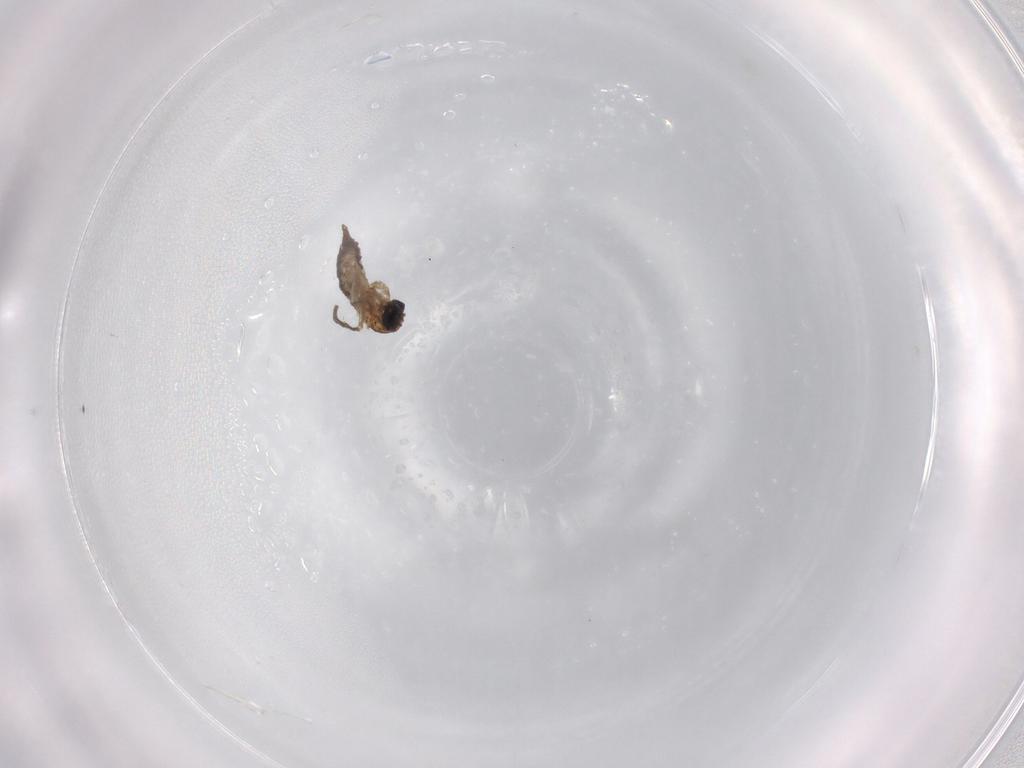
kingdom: Animalia
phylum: Arthropoda
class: Insecta
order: Diptera
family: Sciaridae
